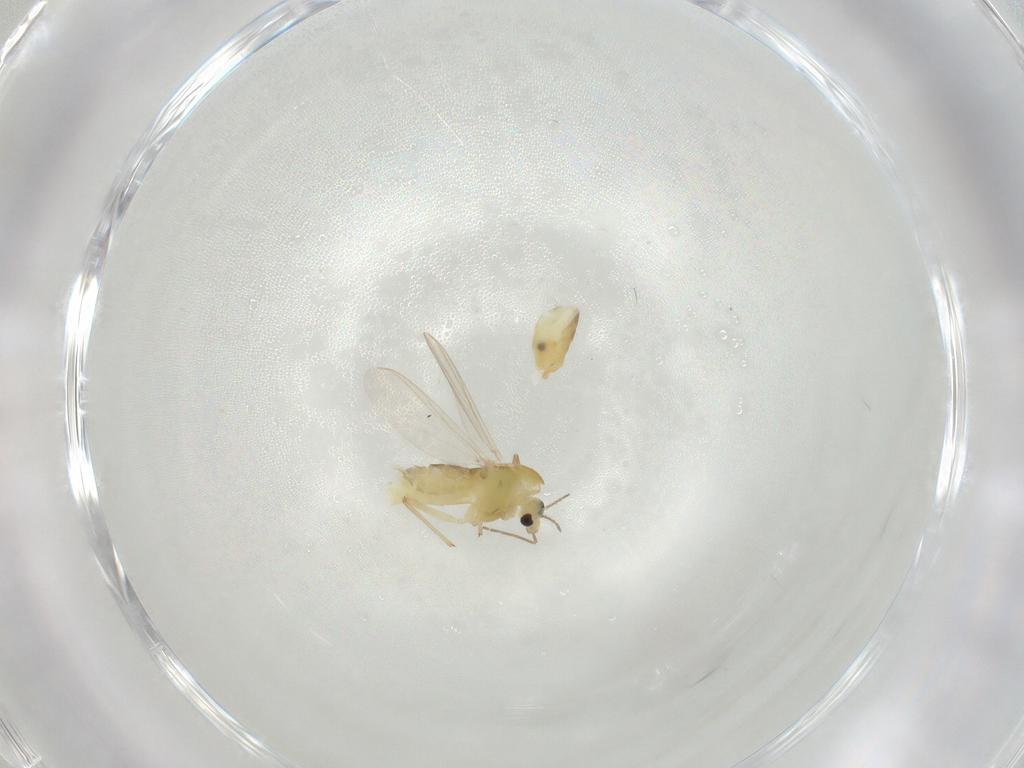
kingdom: Animalia
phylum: Arthropoda
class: Insecta
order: Diptera
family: Chironomidae
